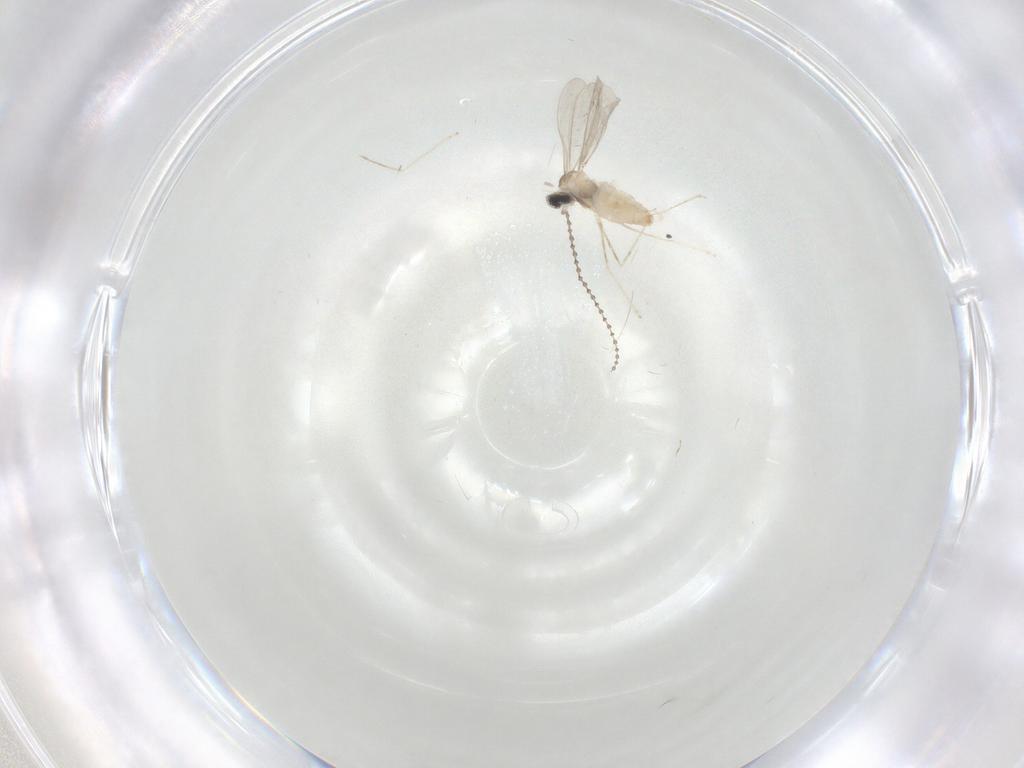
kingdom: Animalia
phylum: Arthropoda
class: Insecta
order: Diptera
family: Cecidomyiidae
